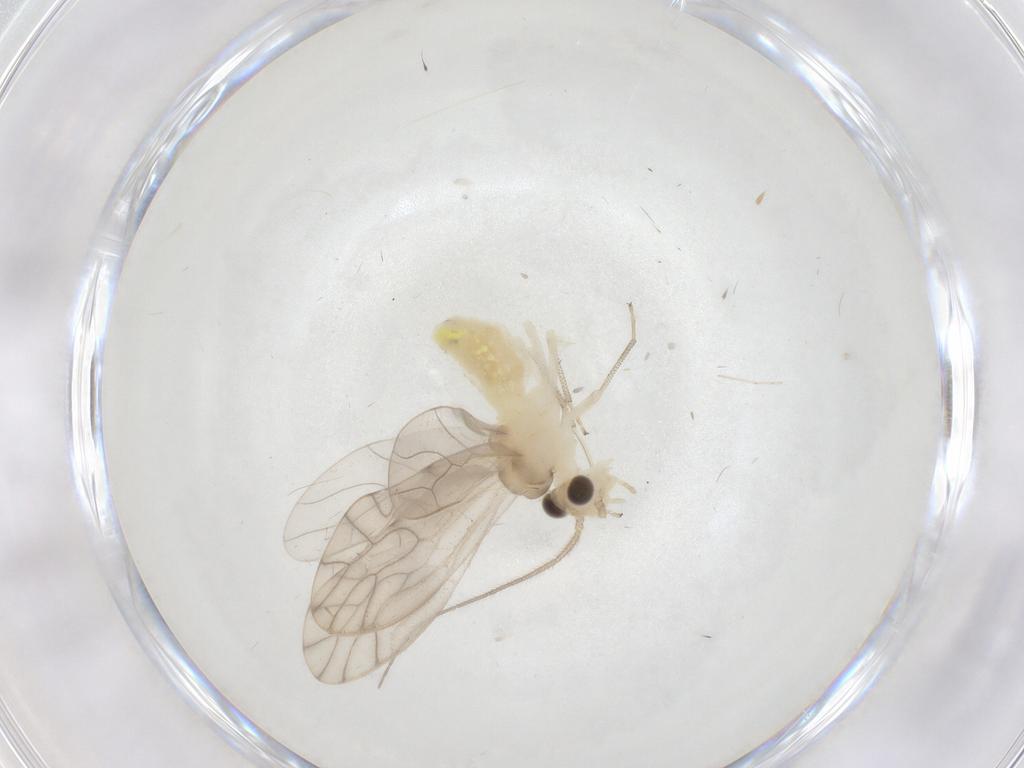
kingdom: Animalia
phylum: Arthropoda
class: Insecta
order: Psocodea
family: Caeciliusidae
